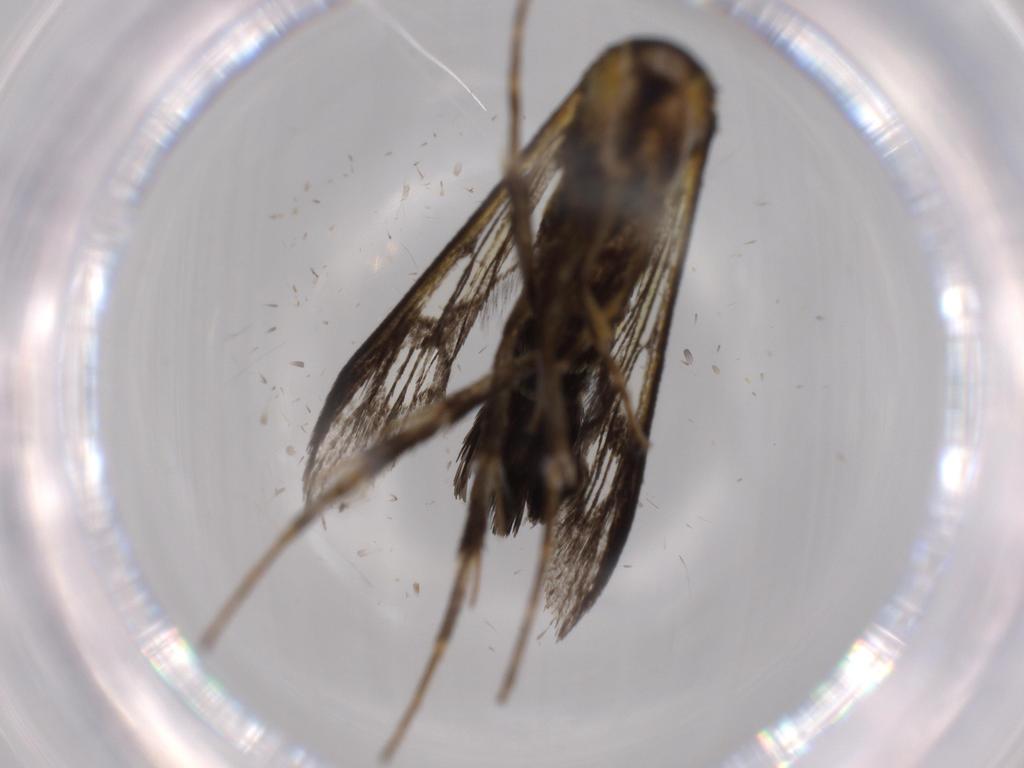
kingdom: Animalia
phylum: Arthropoda
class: Insecta
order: Lepidoptera
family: Sesiidae
